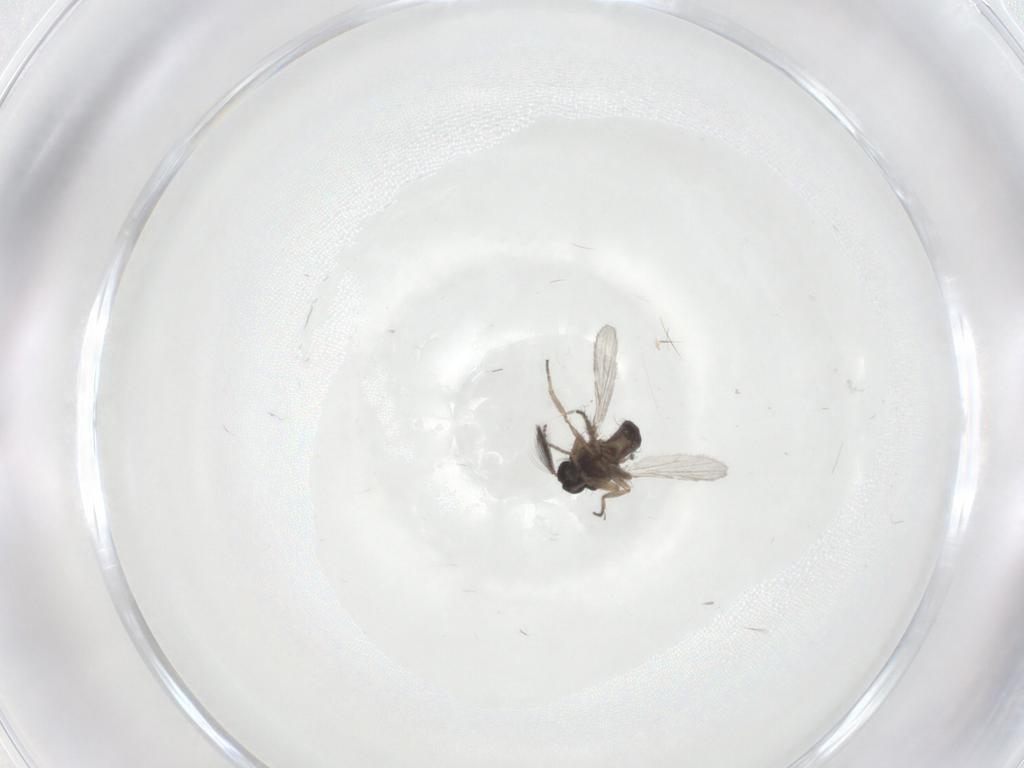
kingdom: Animalia
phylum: Arthropoda
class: Insecta
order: Diptera
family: Ceratopogonidae
